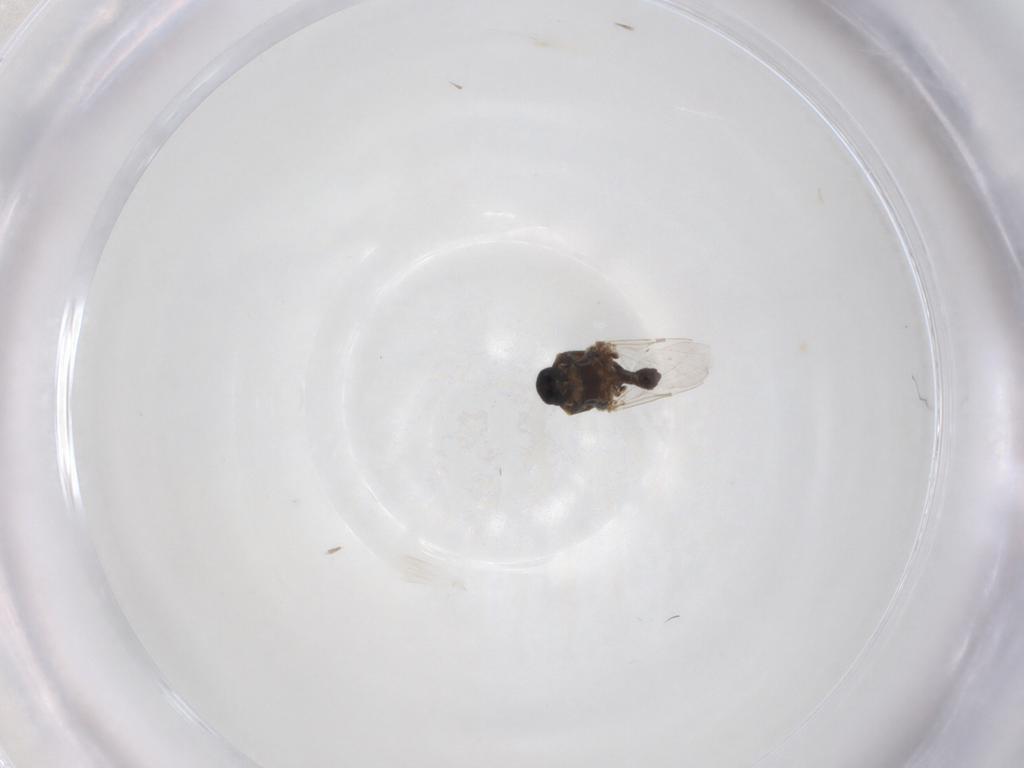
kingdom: Animalia
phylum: Arthropoda
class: Insecta
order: Diptera
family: Ceratopogonidae
